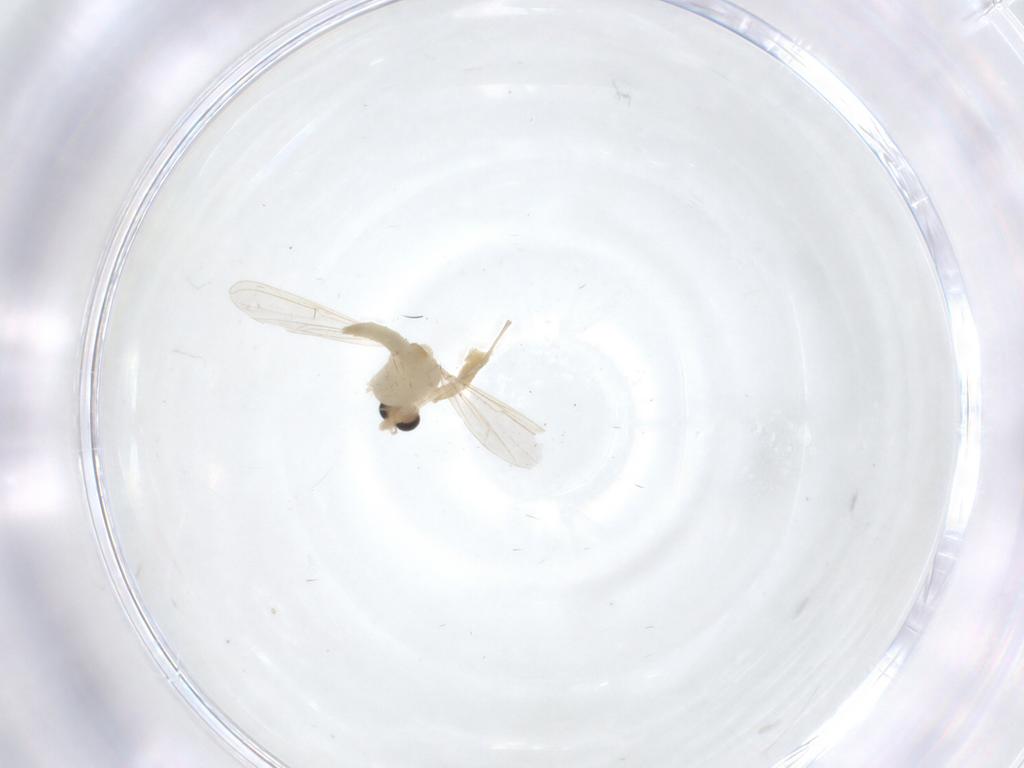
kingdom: Animalia
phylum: Arthropoda
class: Insecta
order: Diptera
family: Chironomidae
